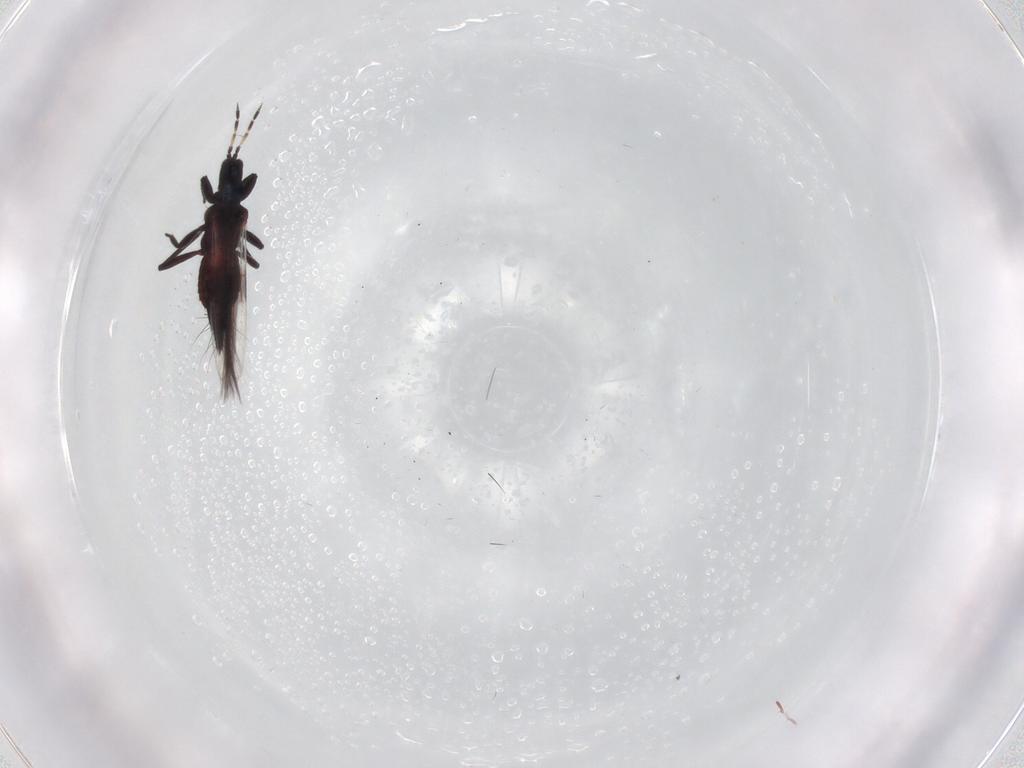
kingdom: Animalia
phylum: Arthropoda
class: Insecta
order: Thysanoptera
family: Aeolothripidae
